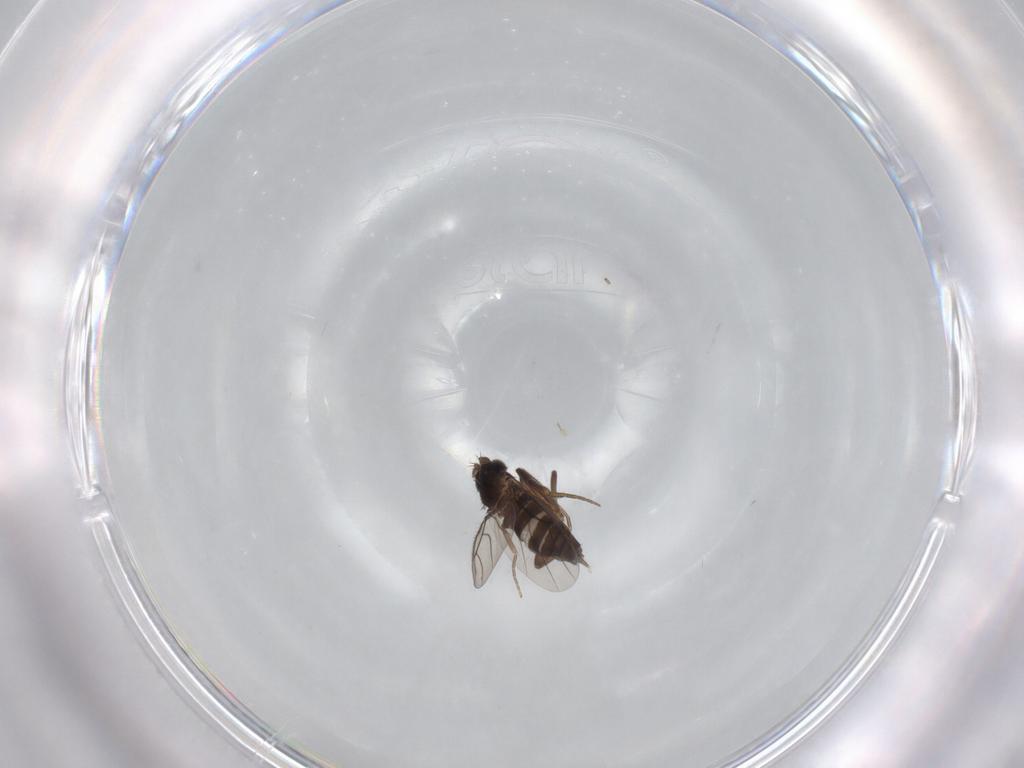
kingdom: Animalia
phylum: Arthropoda
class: Insecta
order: Diptera
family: Phoridae
